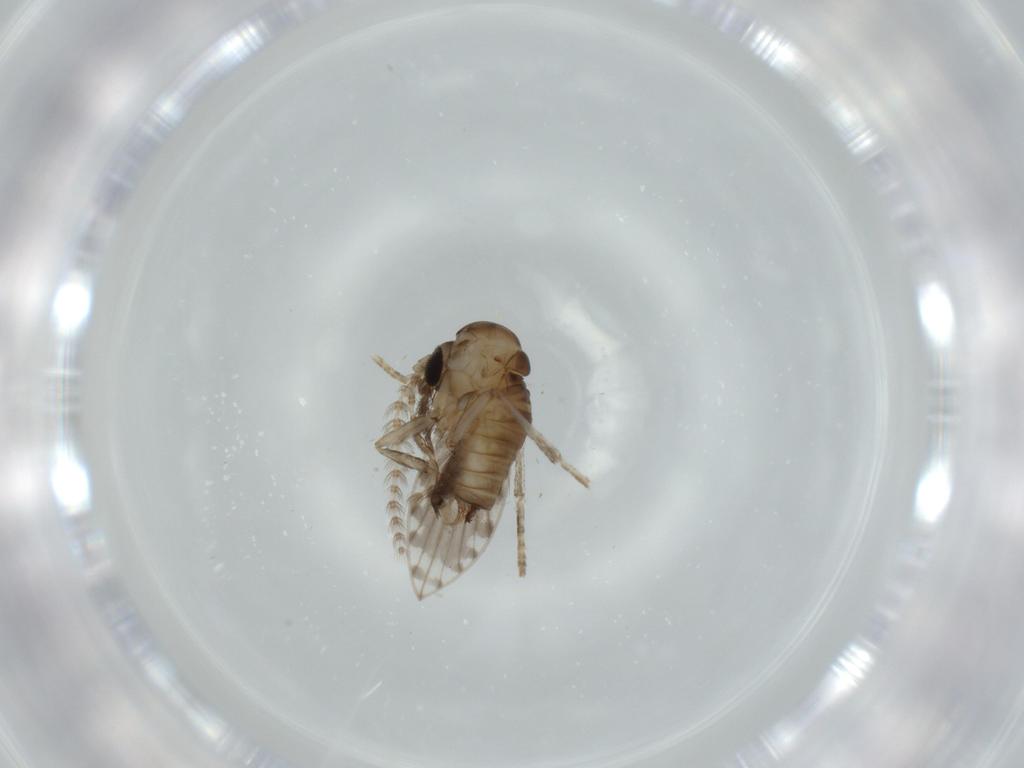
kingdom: Animalia
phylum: Arthropoda
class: Insecta
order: Diptera
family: Psychodidae
